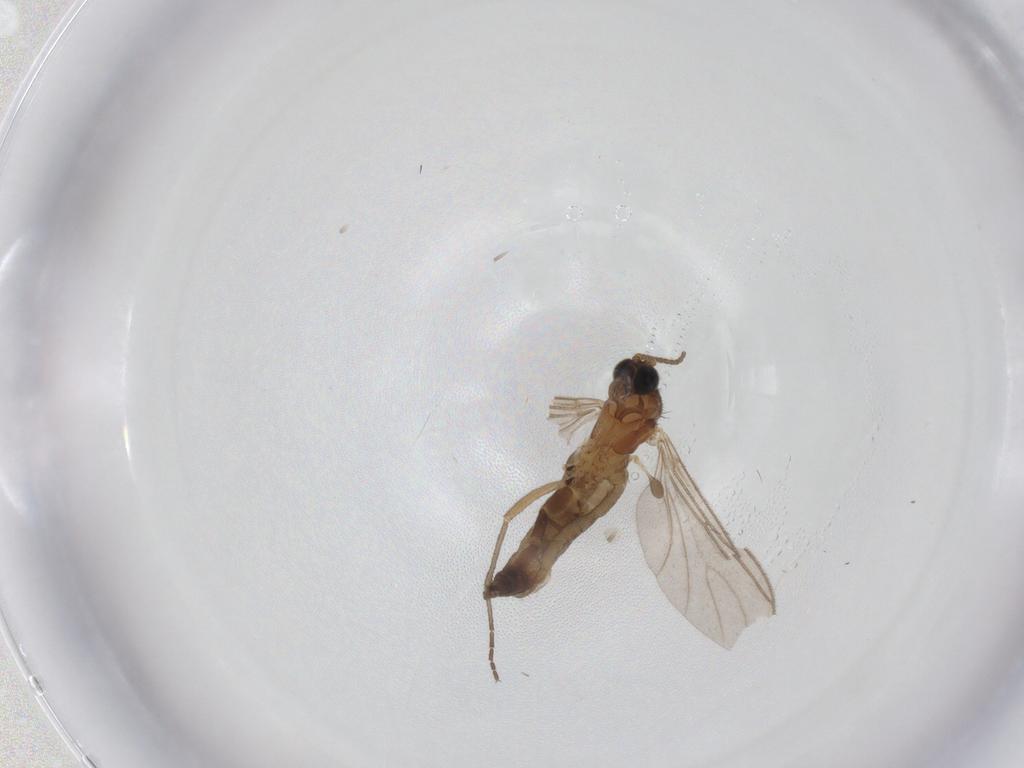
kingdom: Animalia
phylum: Arthropoda
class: Insecta
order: Diptera
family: Sciaridae
